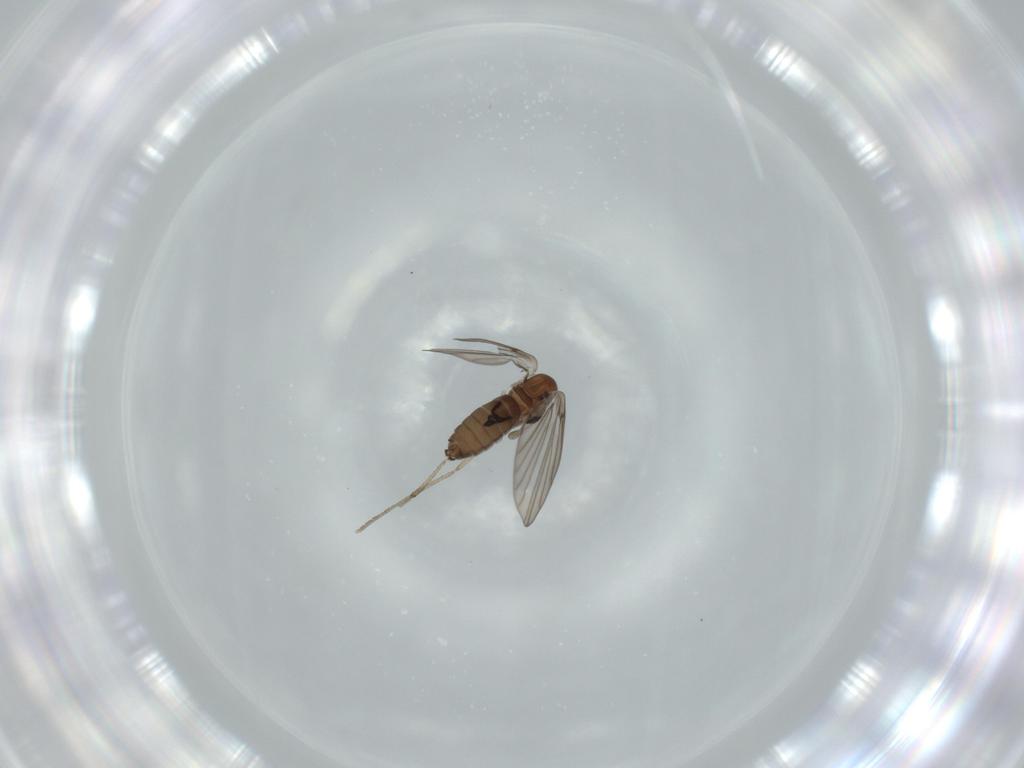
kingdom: Animalia
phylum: Arthropoda
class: Insecta
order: Diptera
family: Psychodidae
